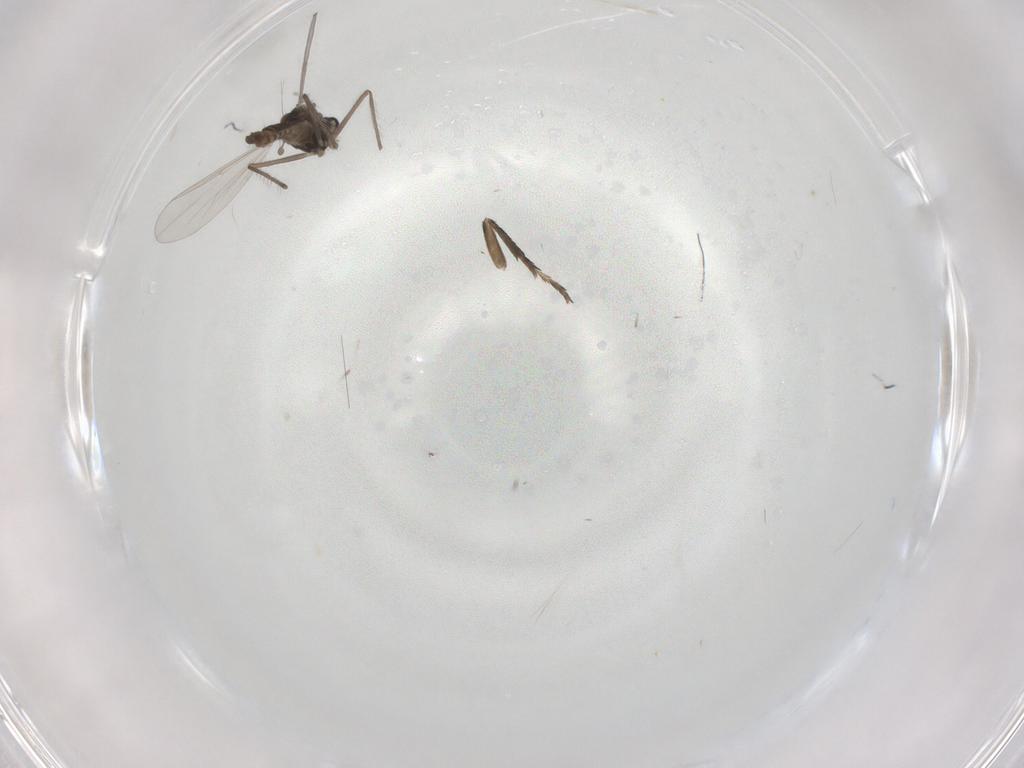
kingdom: Animalia
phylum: Arthropoda
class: Insecta
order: Diptera
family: Chironomidae
